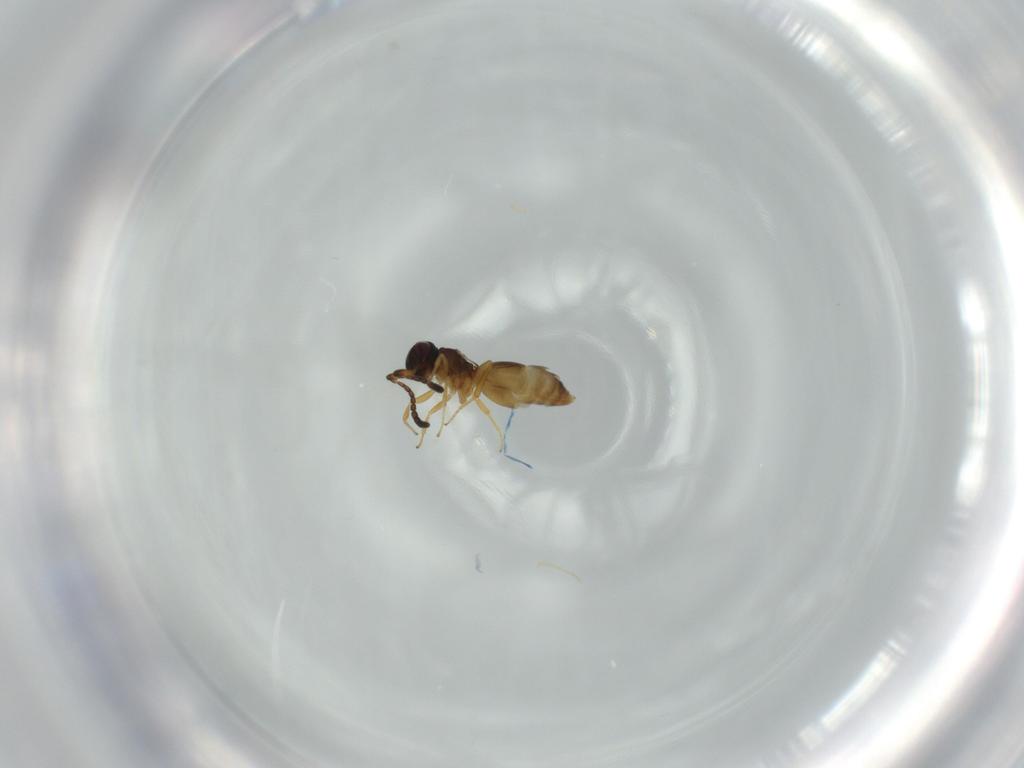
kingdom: Animalia
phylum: Arthropoda
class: Insecta
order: Hymenoptera
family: Megaspilidae
